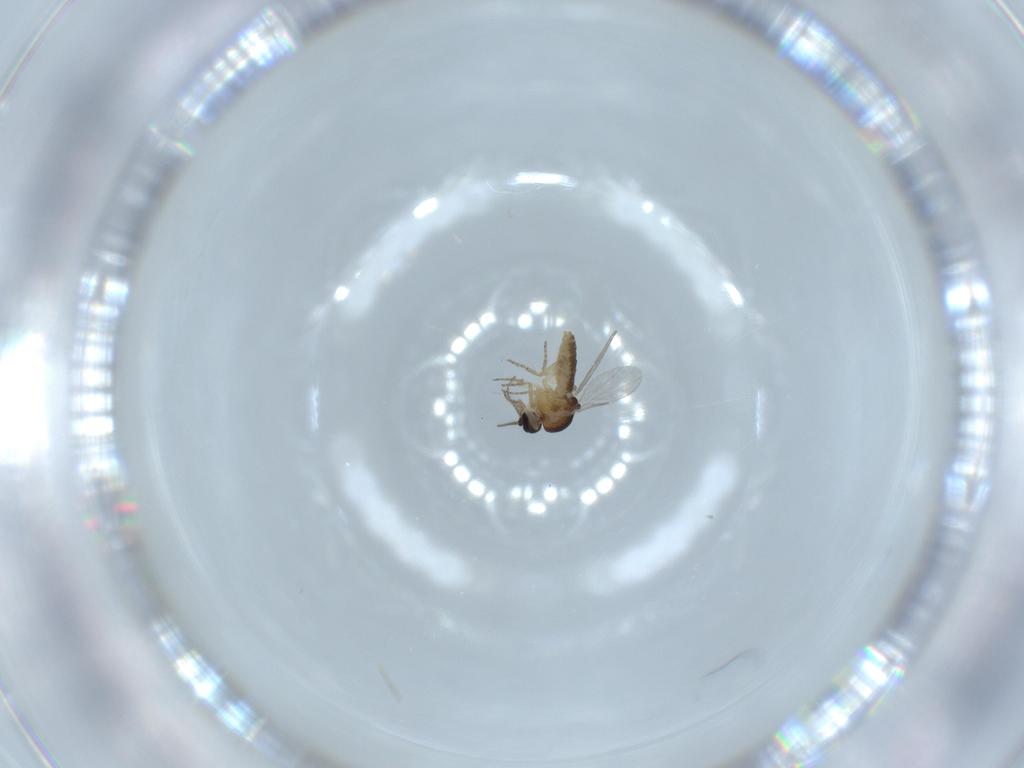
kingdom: Animalia
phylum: Arthropoda
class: Insecta
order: Diptera
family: Ceratopogonidae
